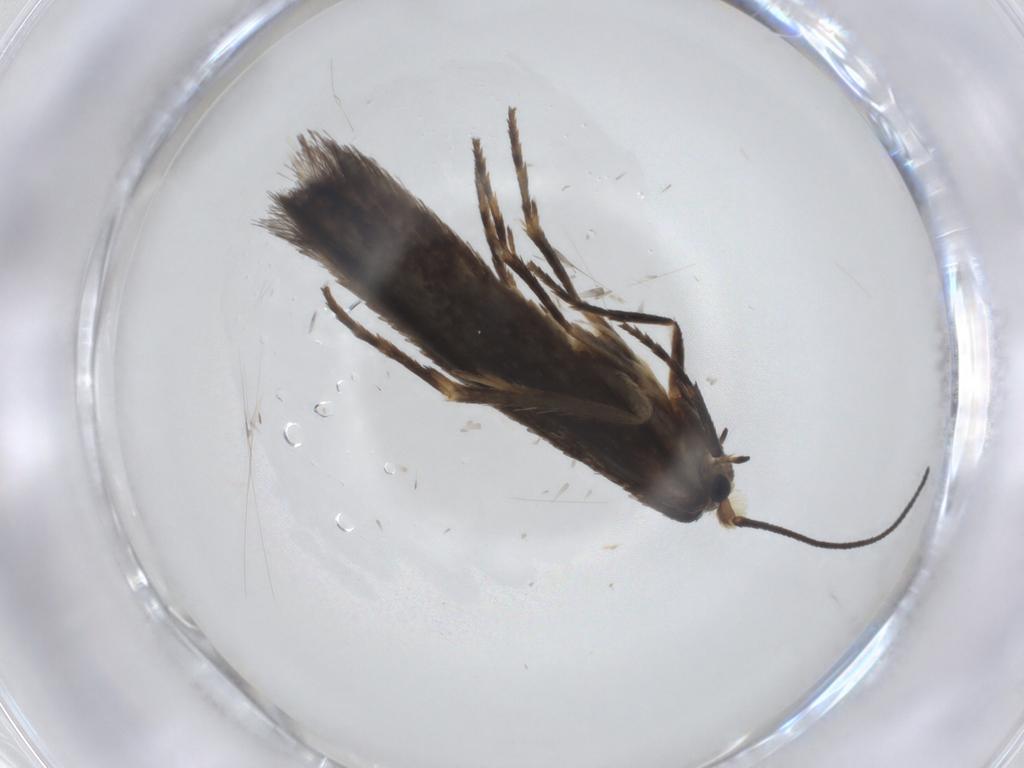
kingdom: Animalia
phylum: Arthropoda
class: Insecta
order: Lepidoptera
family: Nepticulidae
